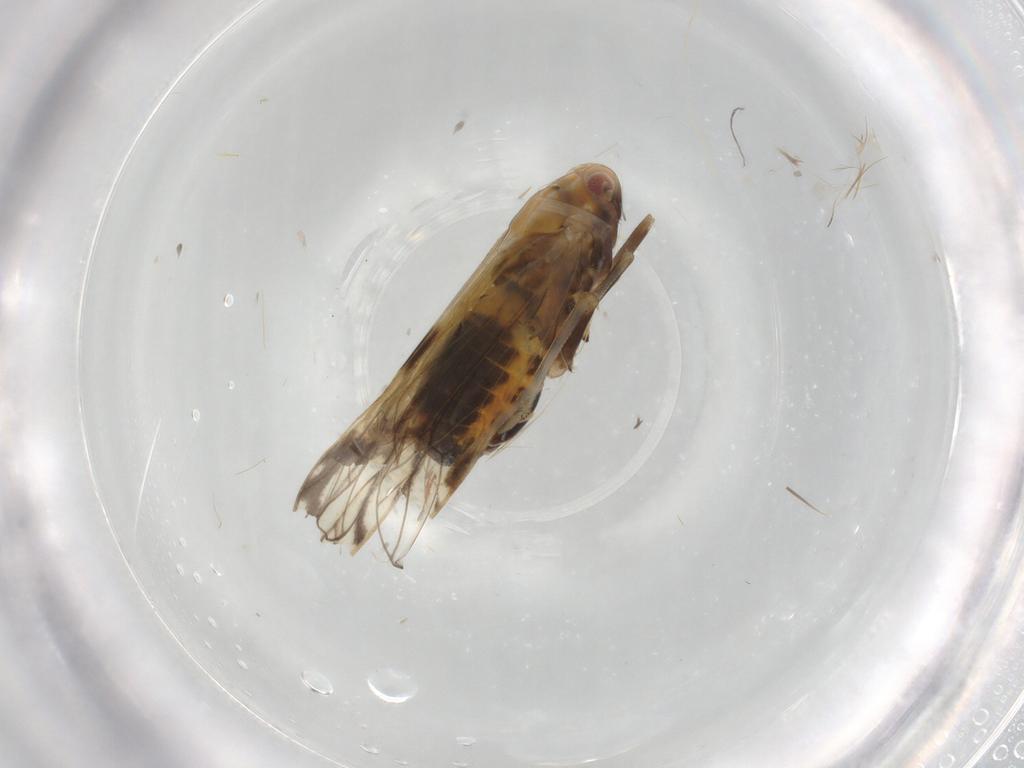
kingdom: Animalia
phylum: Arthropoda
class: Insecta
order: Hemiptera
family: Delphacidae
